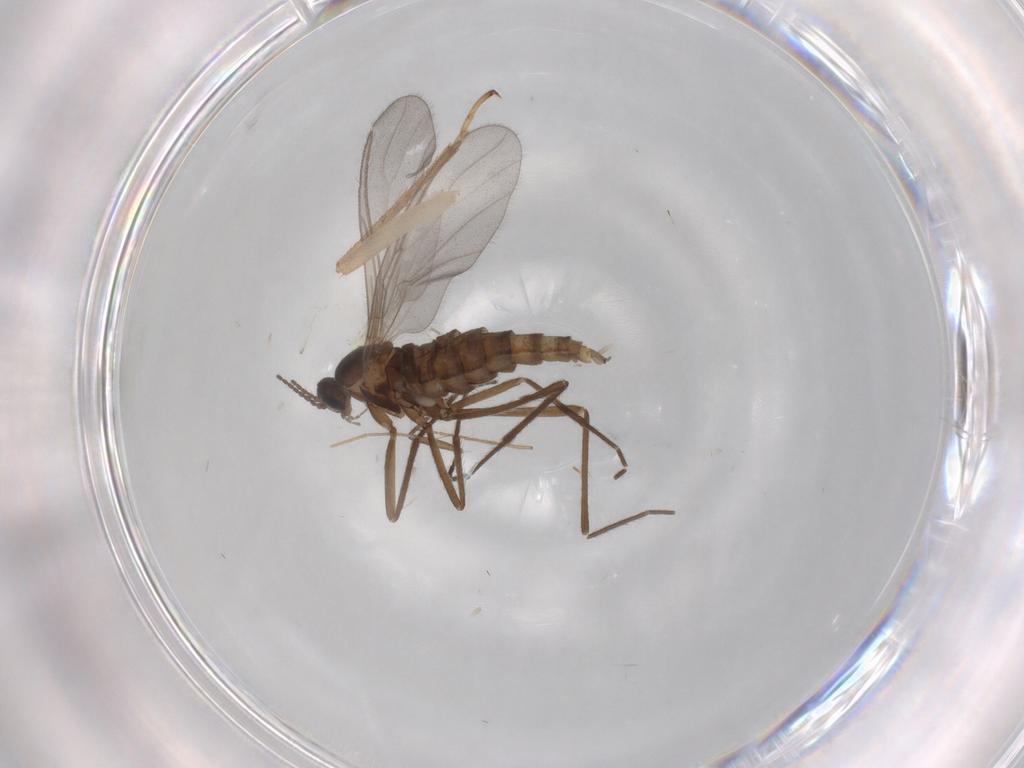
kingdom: Animalia
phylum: Arthropoda
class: Insecta
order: Diptera
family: Cecidomyiidae
